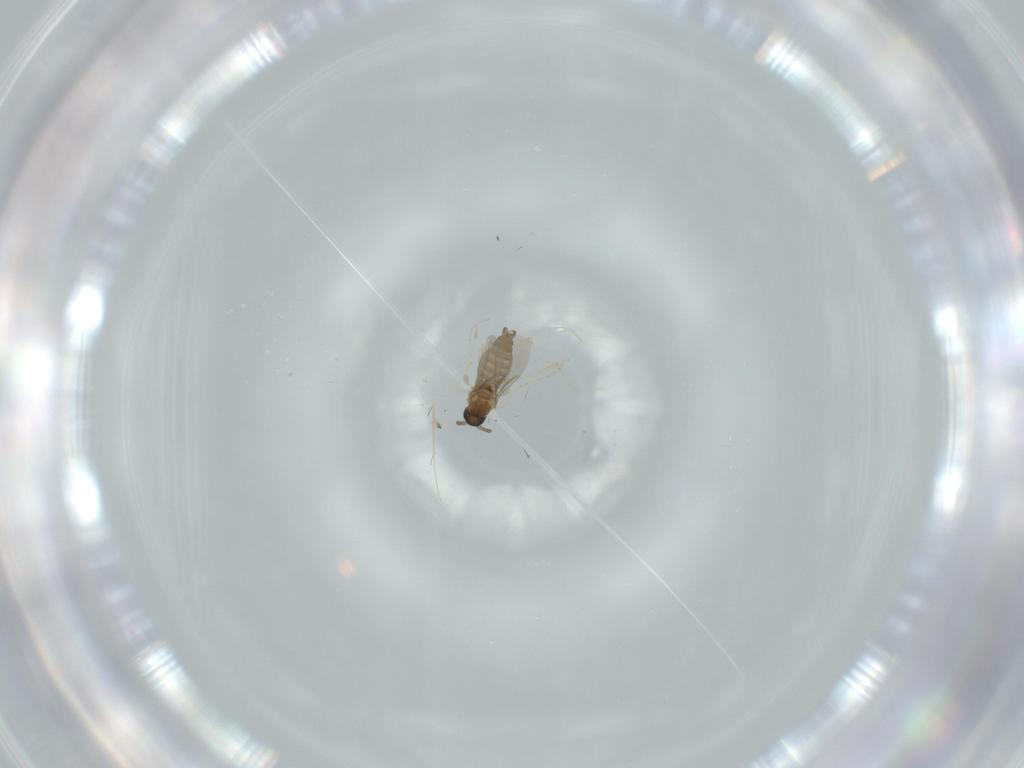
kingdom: Animalia
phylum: Arthropoda
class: Insecta
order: Diptera
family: Cecidomyiidae
